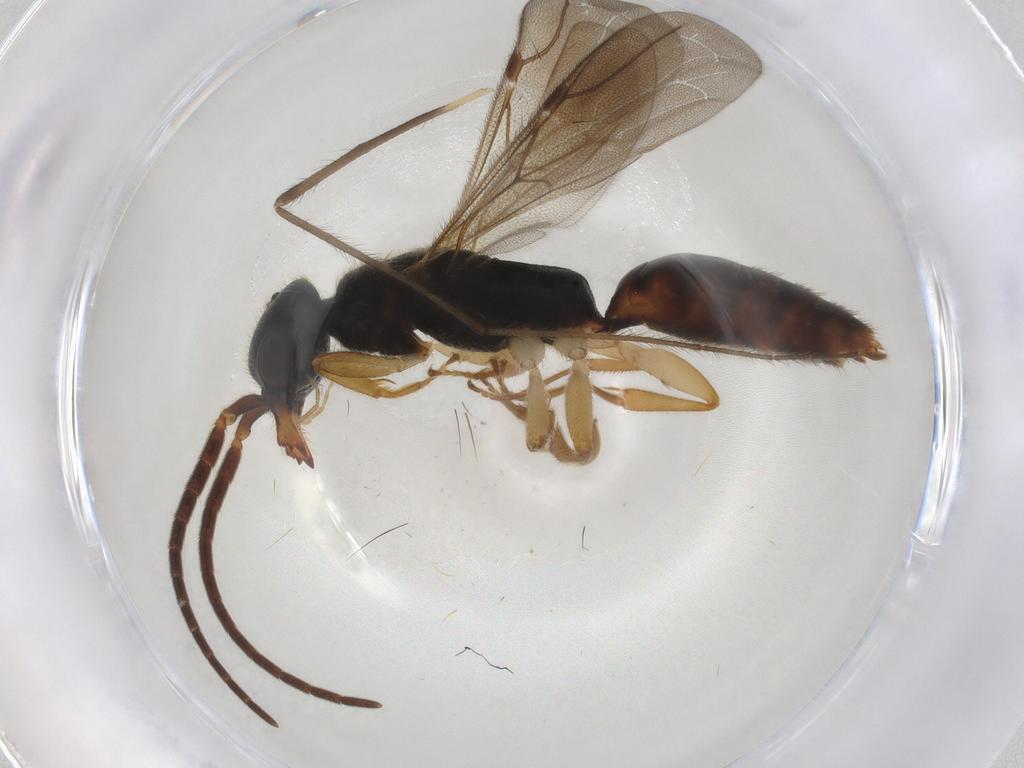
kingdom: Animalia
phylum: Arthropoda
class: Insecta
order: Hymenoptera
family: Bethylidae
